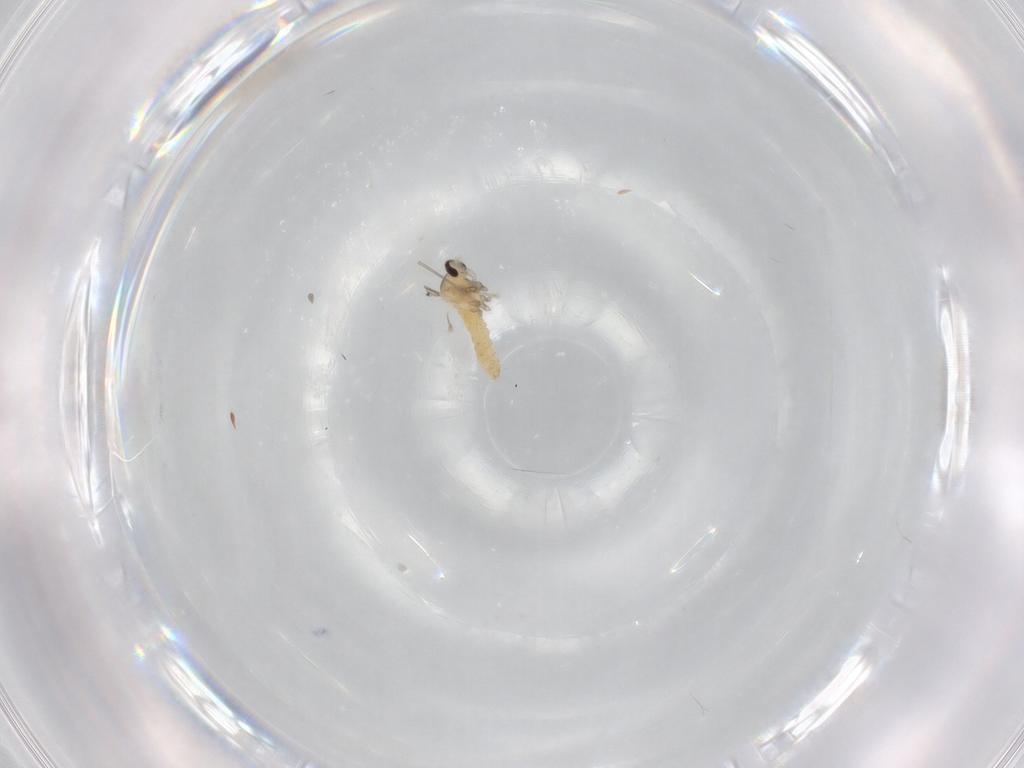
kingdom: Animalia
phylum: Arthropoda
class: Insecta
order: Diptera
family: Cecidomyiidae
